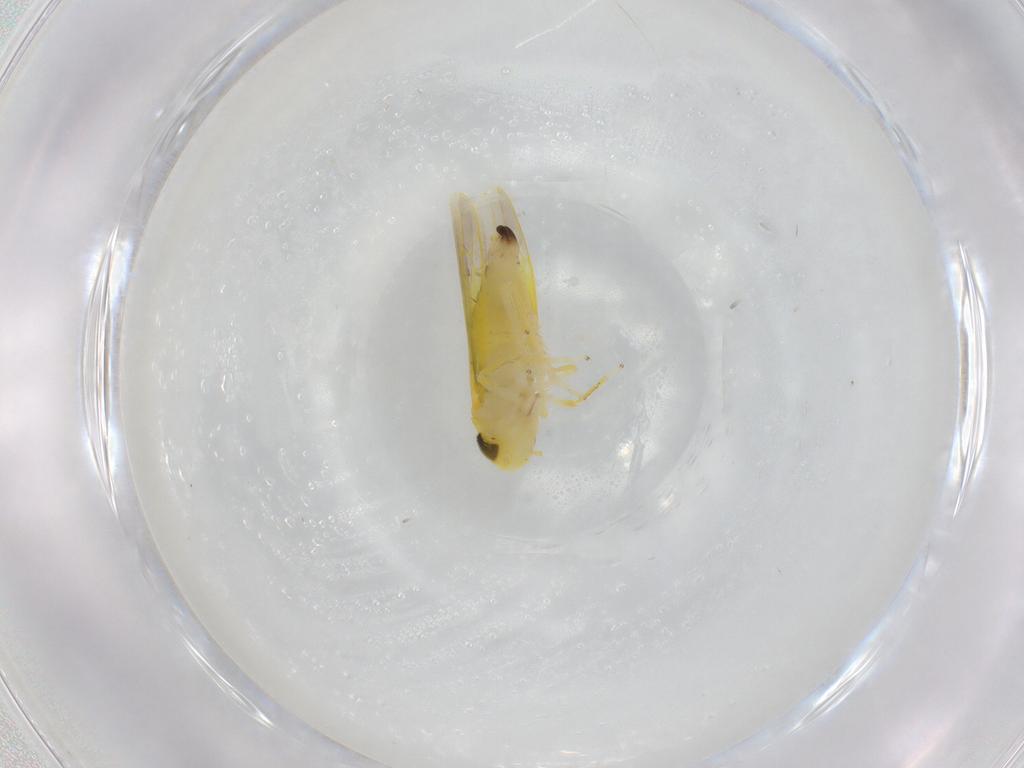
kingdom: Animalia
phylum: Arthropoda
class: Insecta
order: Hemiptera
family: Cicadellidae
